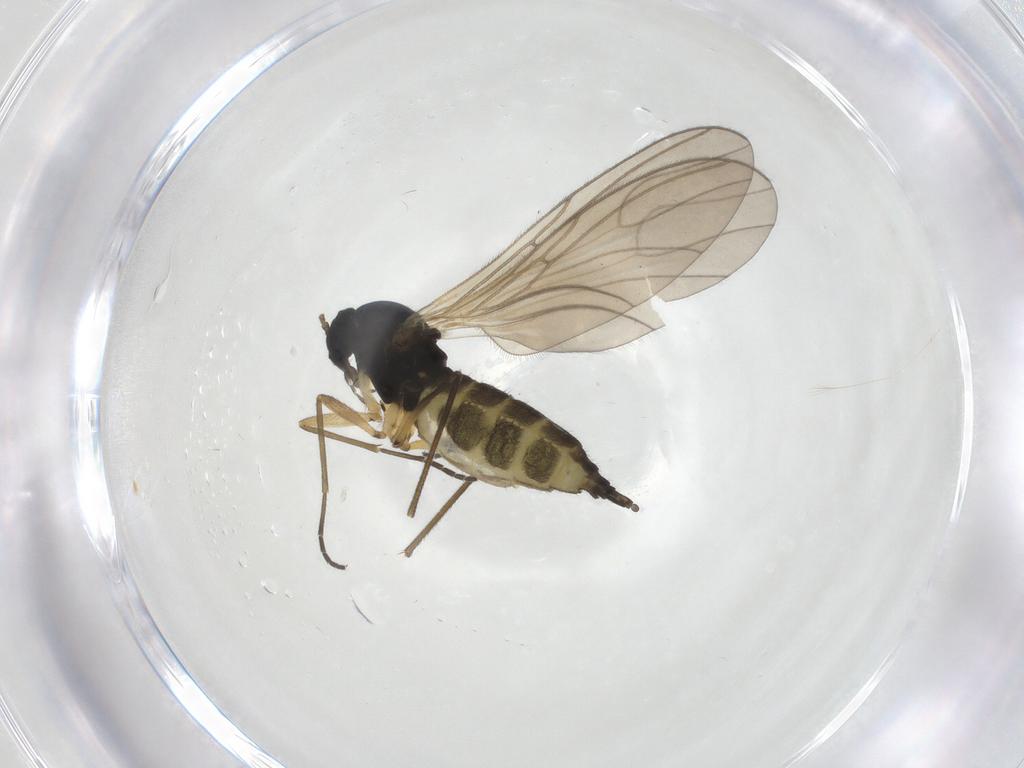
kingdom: Animalia
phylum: Arthropoda
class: Insecta
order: Diptera
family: Sciaridae
